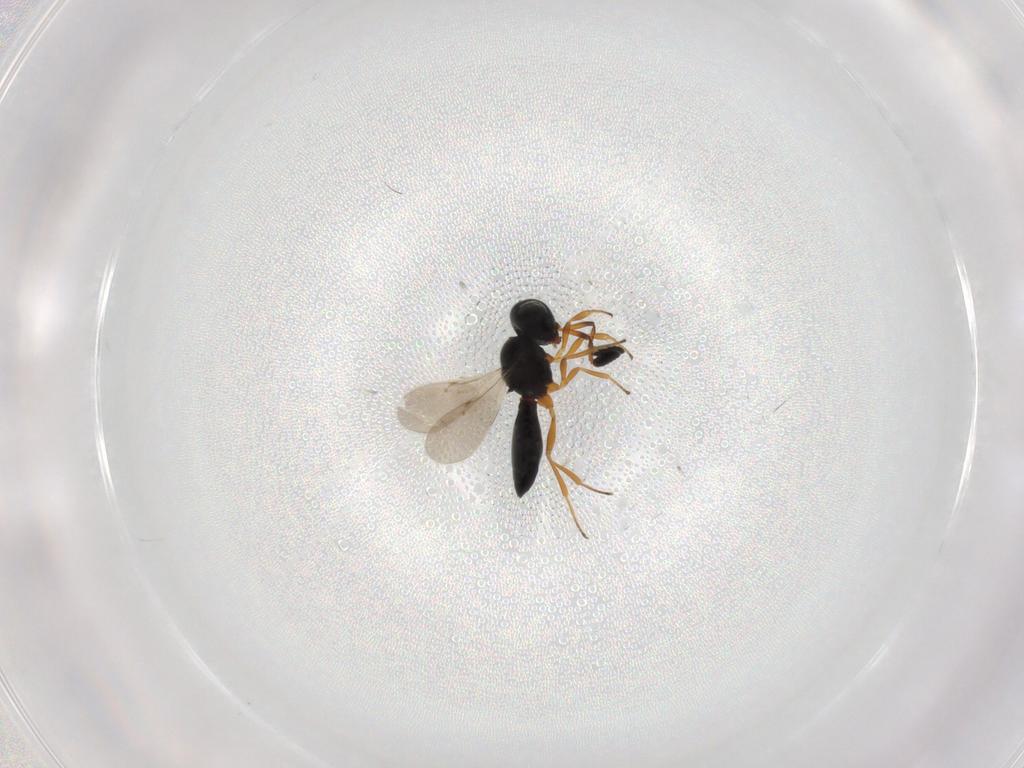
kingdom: Animalia
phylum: Arthropoda
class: Insecta
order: Hymenoptera
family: Scelionidae
